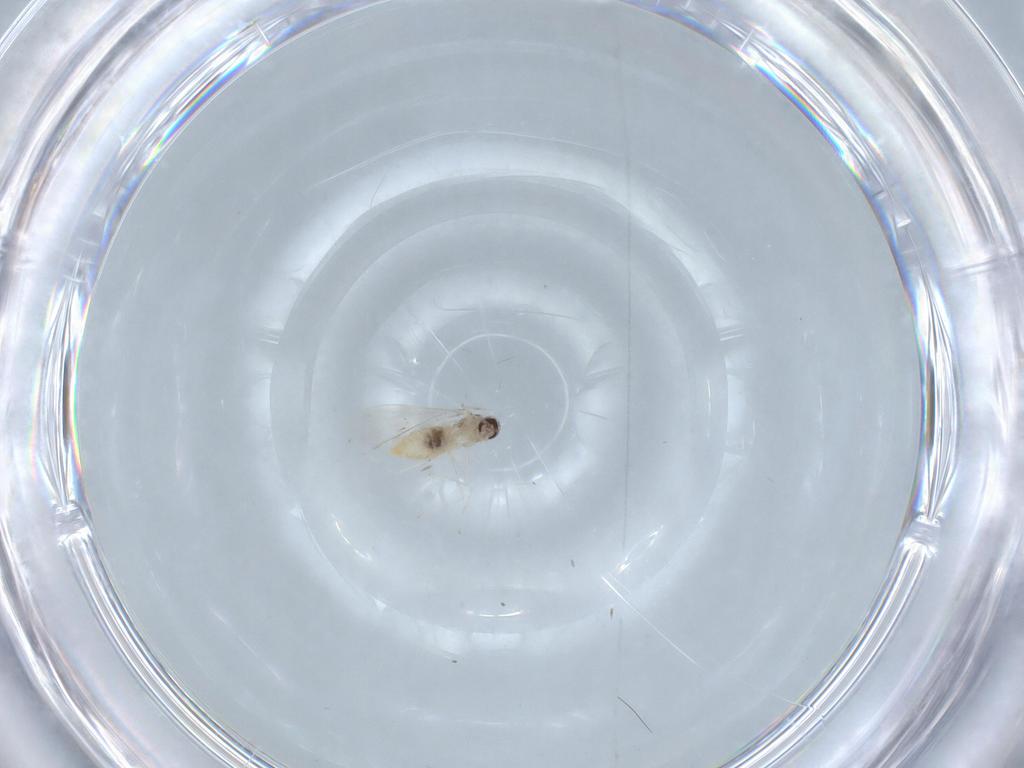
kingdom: Animalia
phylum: Arthropoda
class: Insecta
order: Diptera
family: Cecidomyiidae
